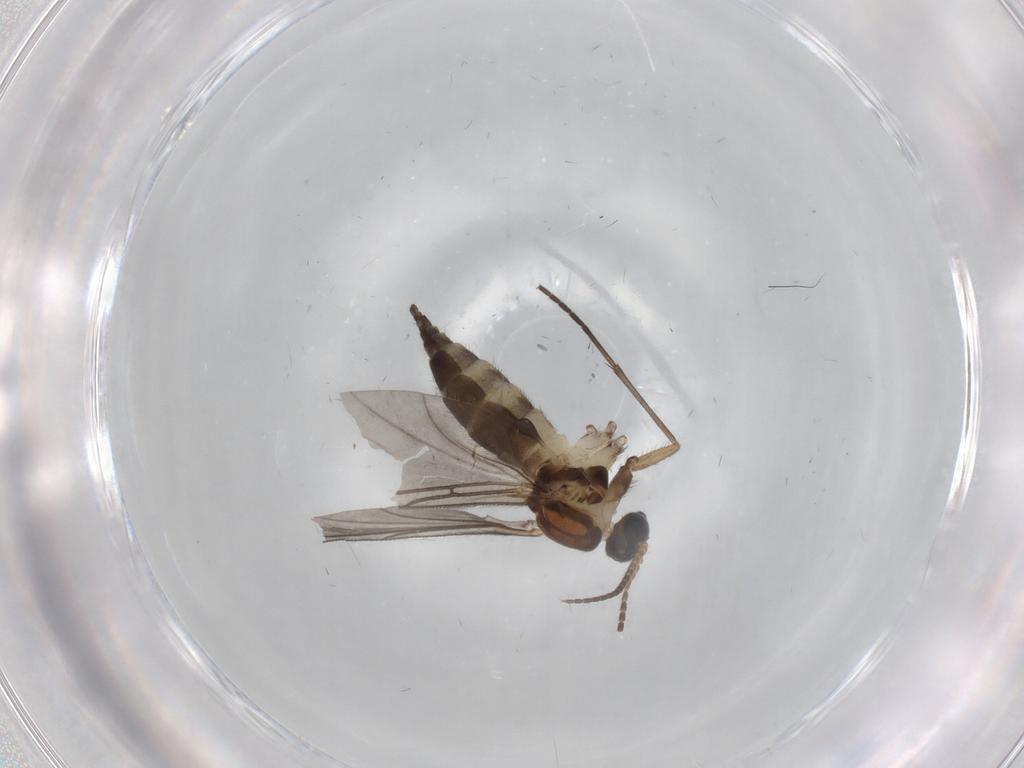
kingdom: Animalia
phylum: Arthropoda
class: Insecta
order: Diptera
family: Sciaridae
